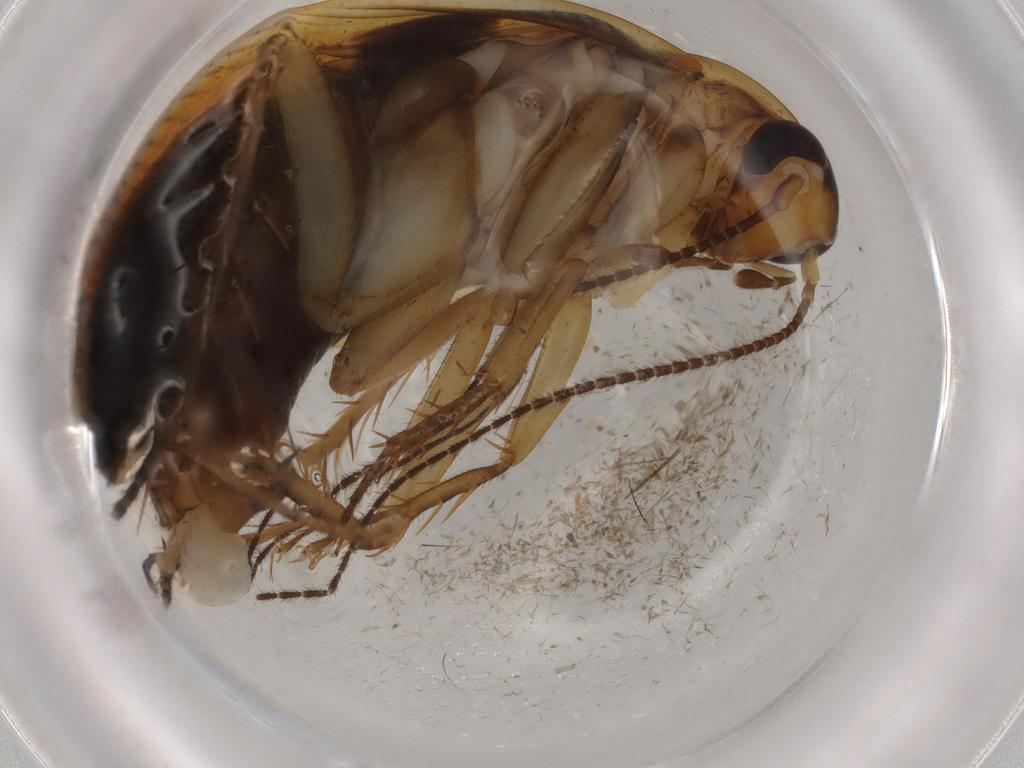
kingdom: Animalia
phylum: Arthropoda
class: Insecta
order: Blattodea
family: Ectobiidae
